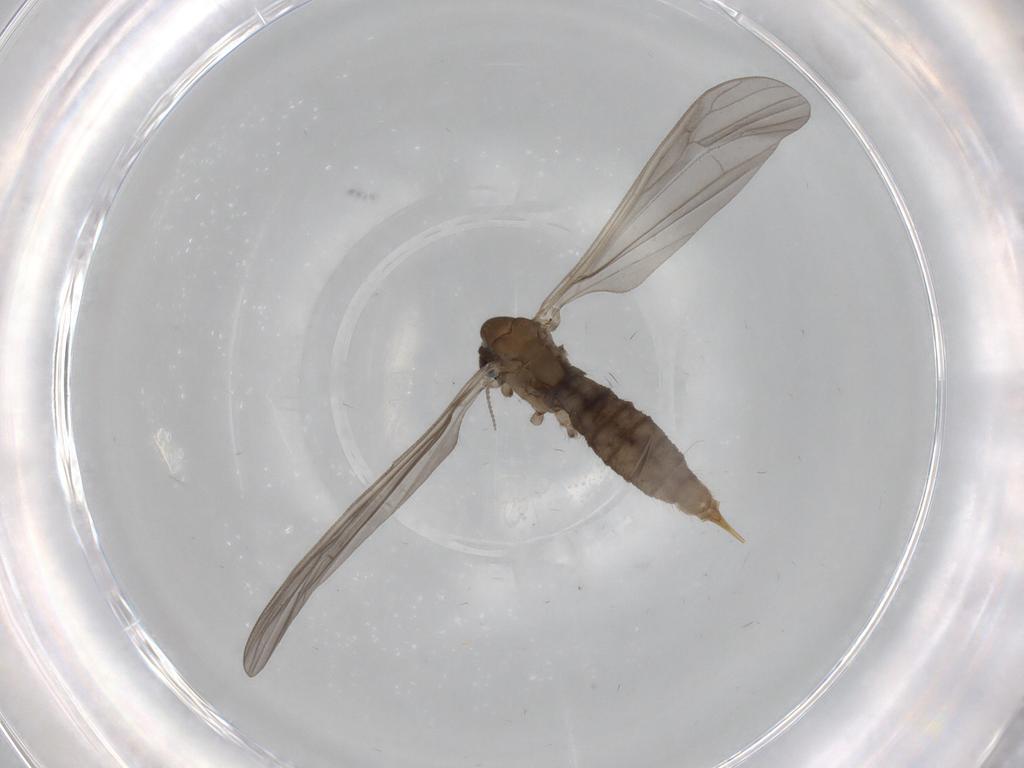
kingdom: Animalia
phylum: Arthropoda
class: Insecta
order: Diptera
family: Limoniidae
